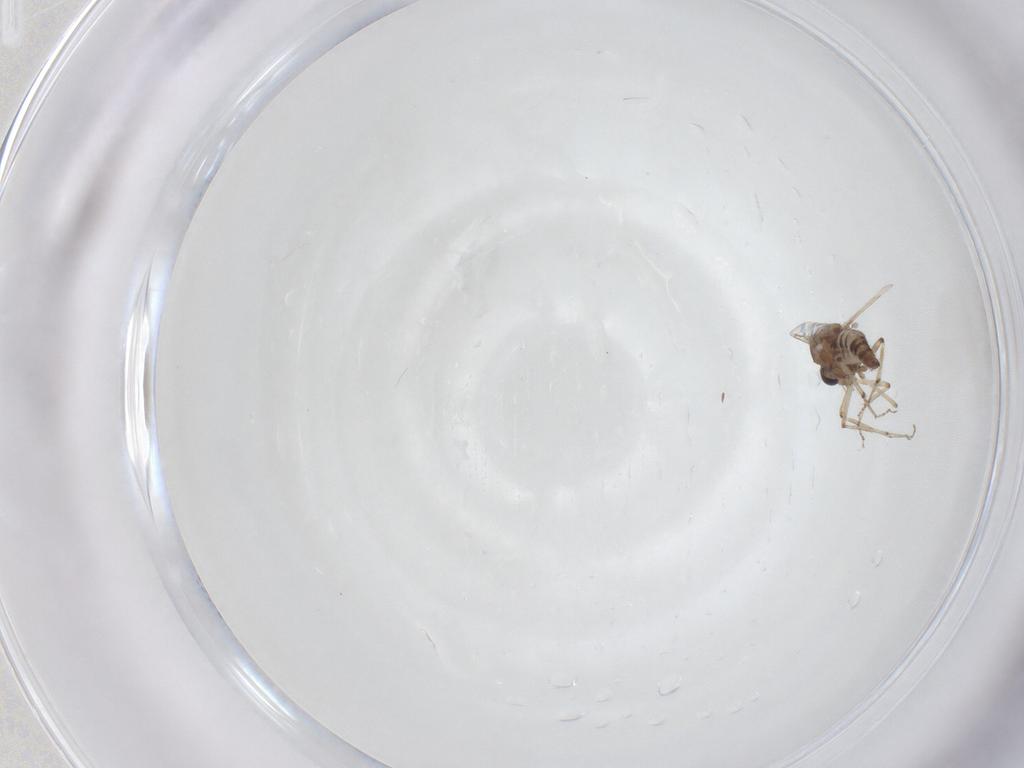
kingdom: Animalia
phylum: Arthropoda
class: Insecta
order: Diptera
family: Ceratopogonidae
